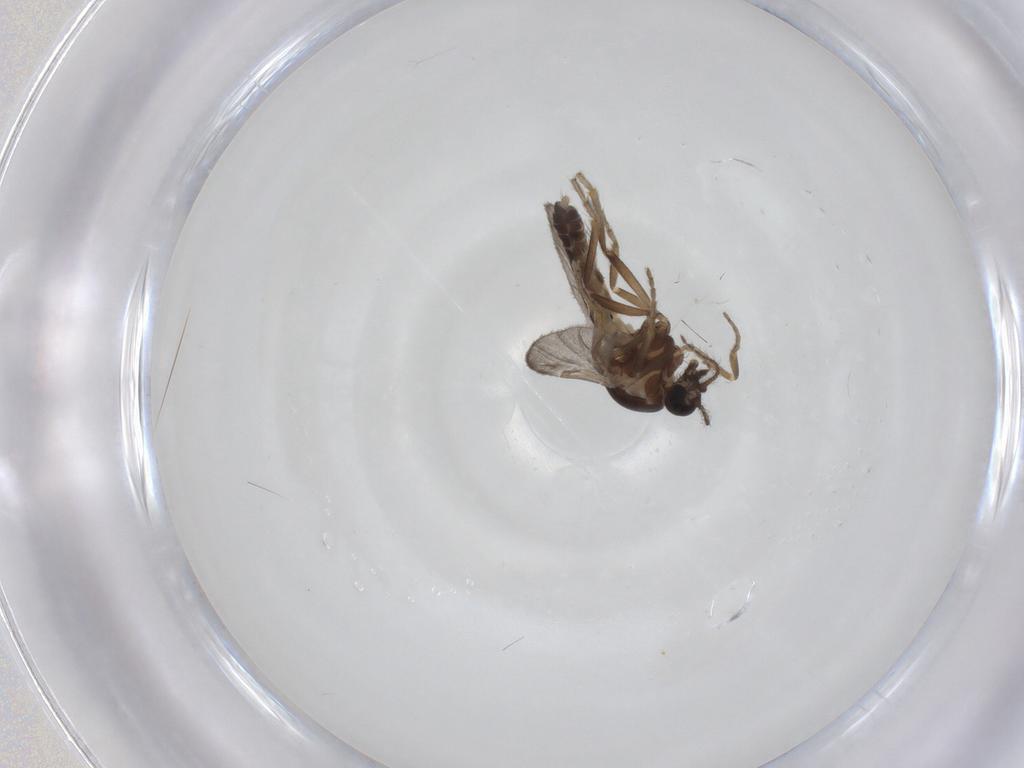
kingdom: Animalia
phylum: Arthropoda
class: Insecta
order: Diptera
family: Ceratopogonidae
